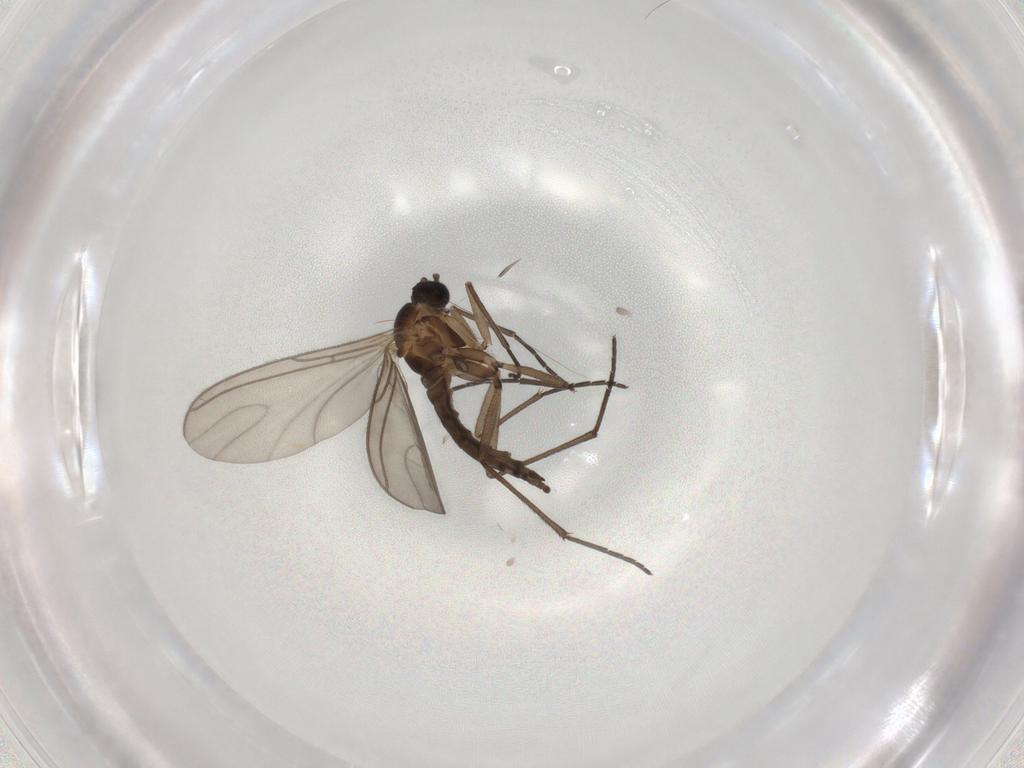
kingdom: Animalia
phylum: Arthropoda
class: Insecta
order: Diptera
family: Sciaridae
